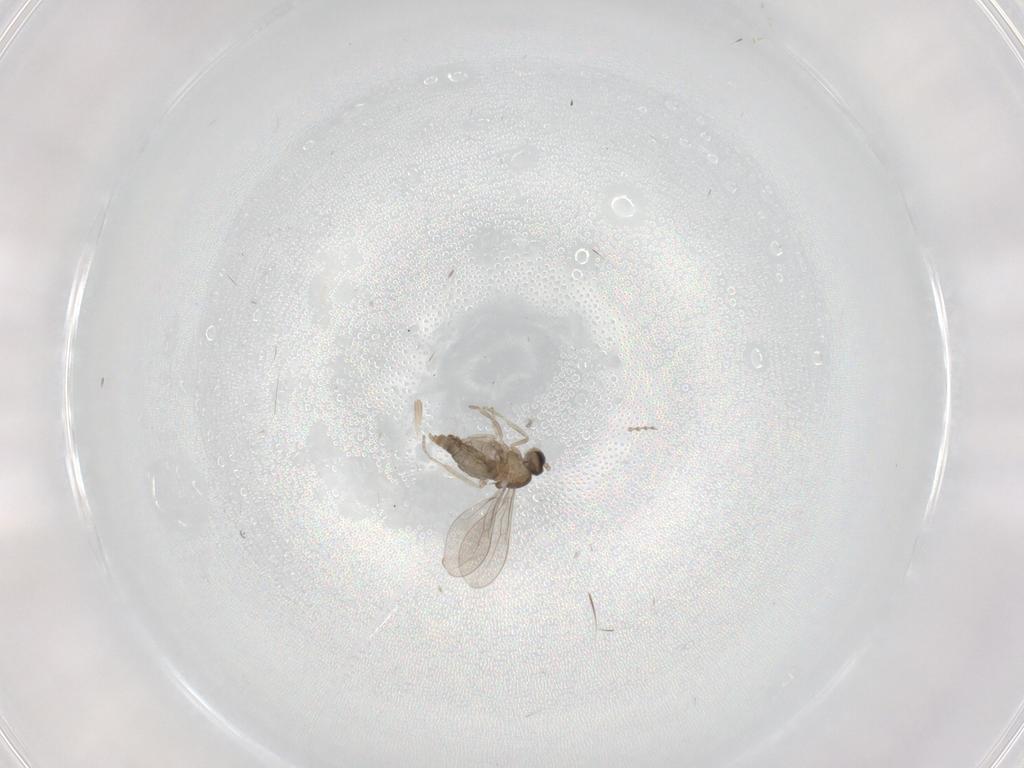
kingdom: Animalia
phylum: Arthropoda
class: Insecta
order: Diptera
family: Cecidomyiidae
